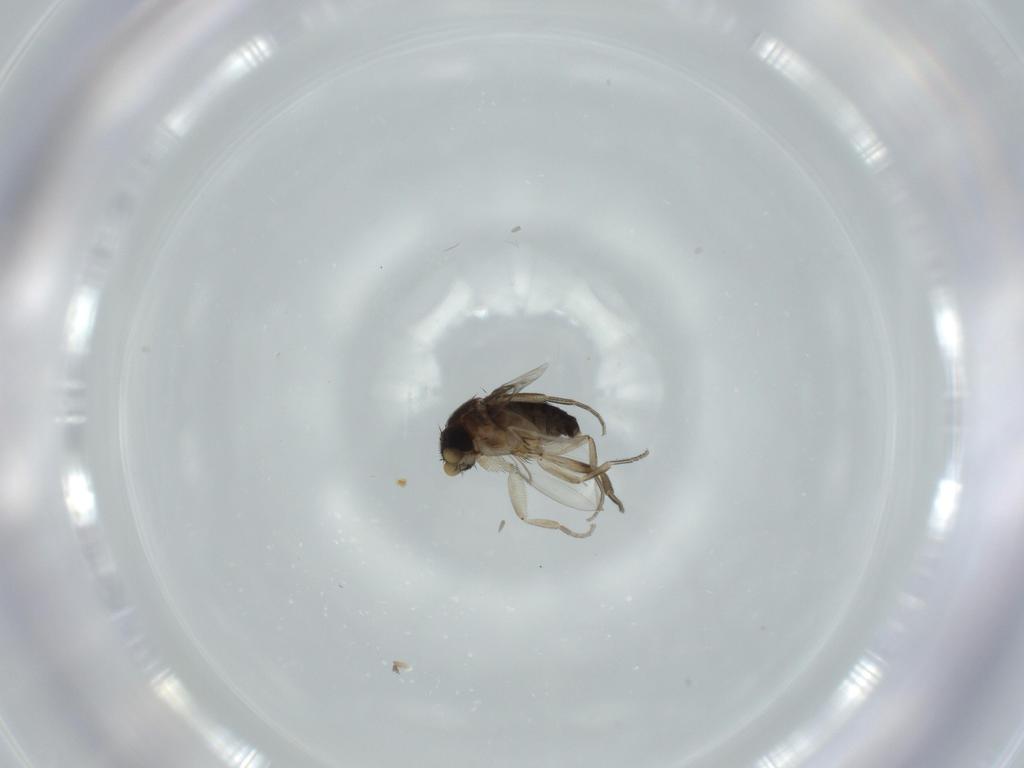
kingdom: Animalia
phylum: Arthropoda
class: Insecta
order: Diptera
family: Phoridae
